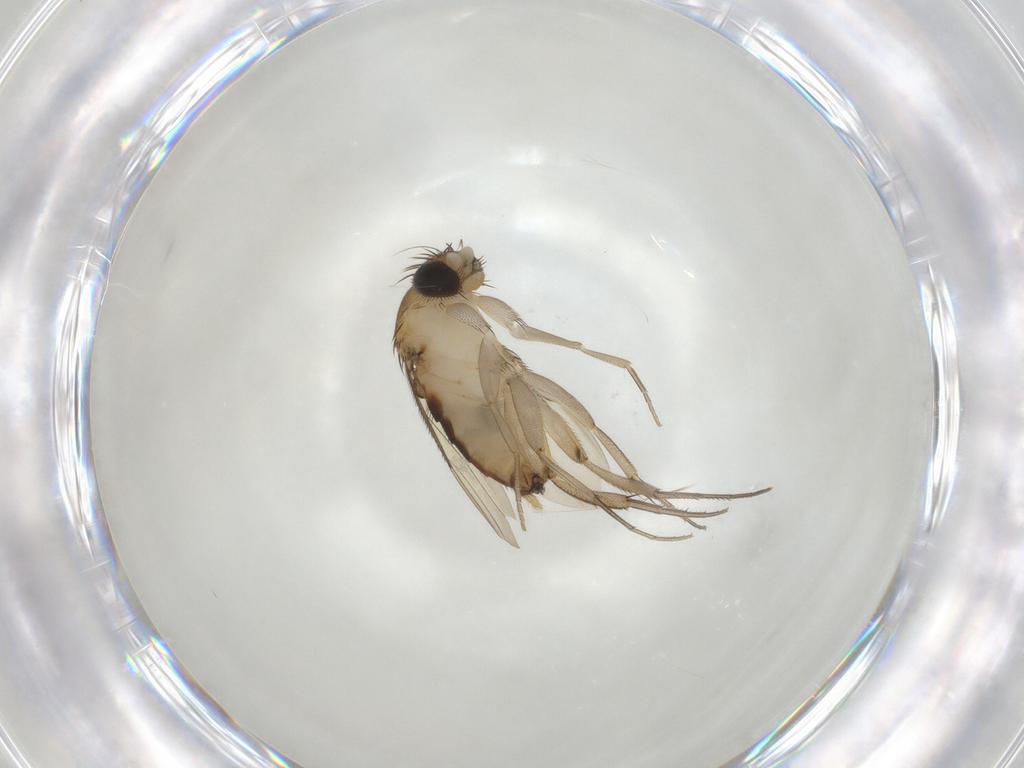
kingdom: Animalia
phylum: Arthropoda
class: Insecta
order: Diptera
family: Phoridae
